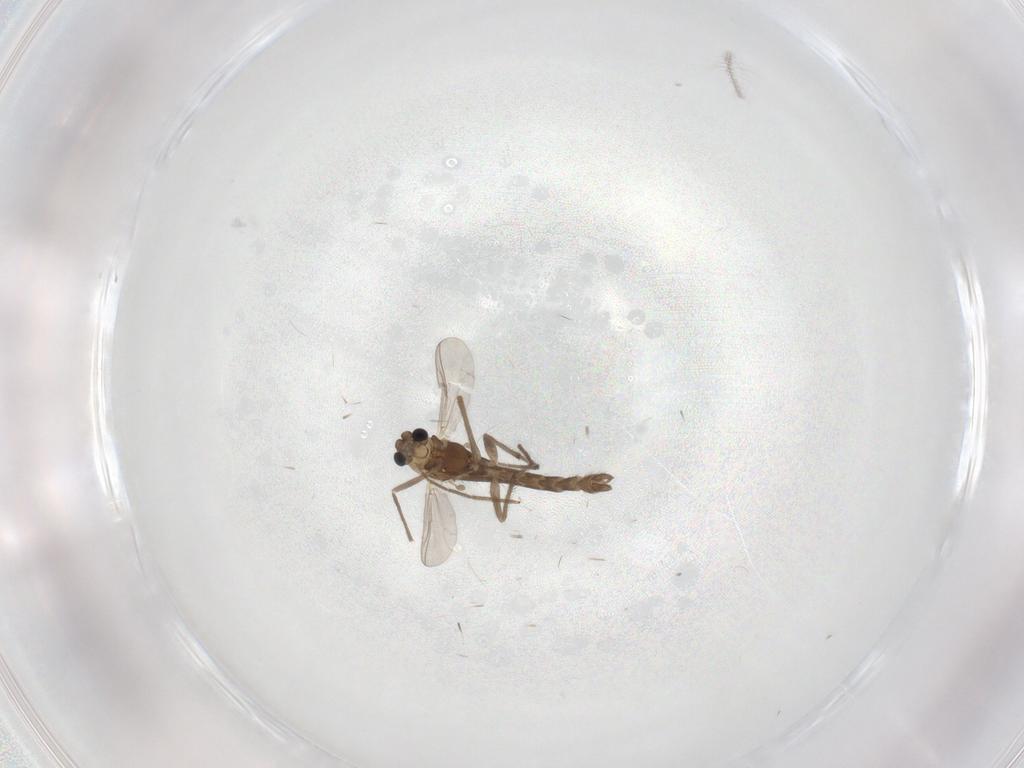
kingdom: Animalia
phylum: Arthropoda
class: Insecta
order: Diptera
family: Chironomidae
